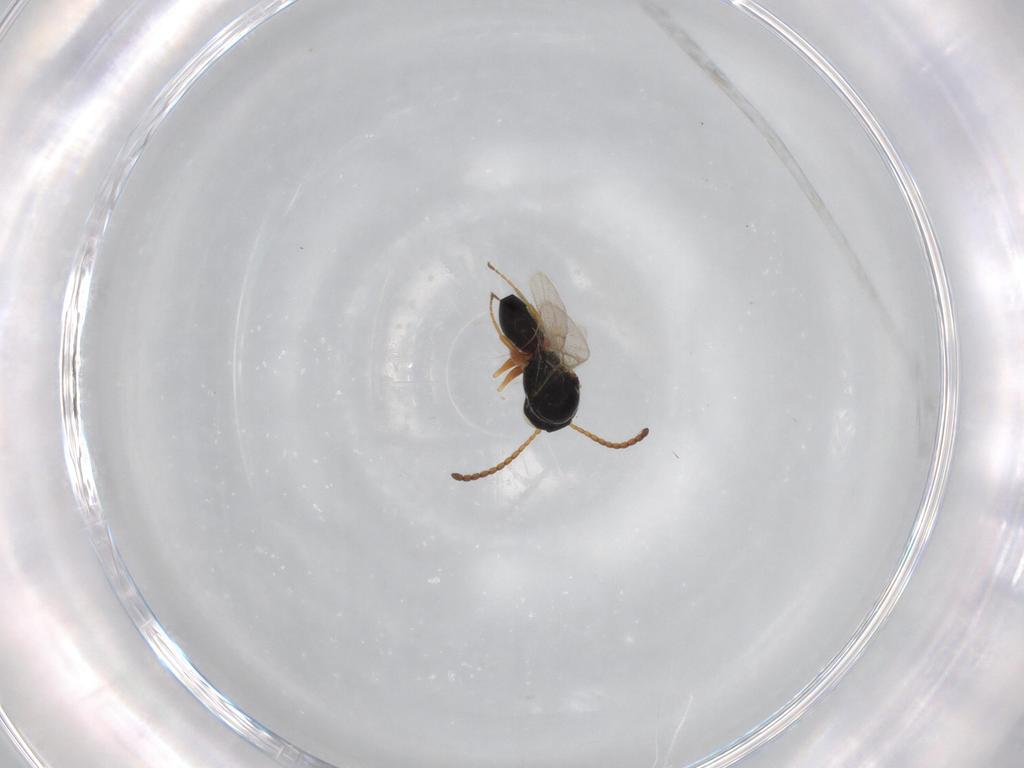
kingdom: Animalia
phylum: Arthropoda
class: Insecta
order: Hymenoptera
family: Figitidae
